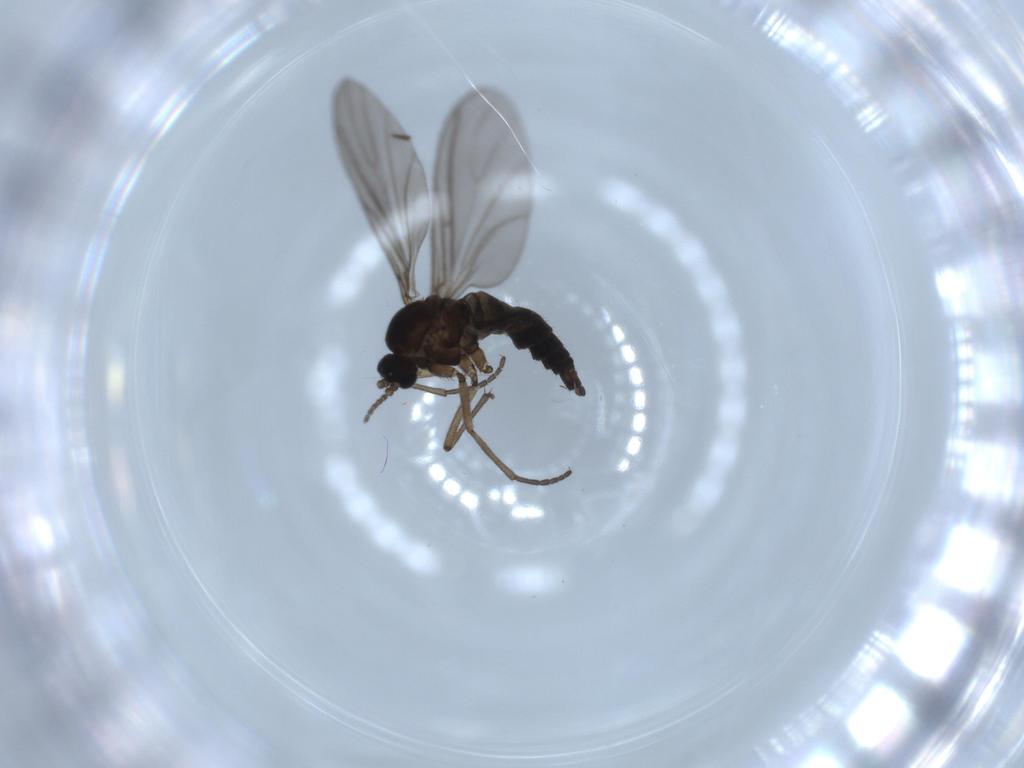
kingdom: Animalia
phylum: Arthropoda
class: Insecta
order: Diptera
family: Sciaridae
